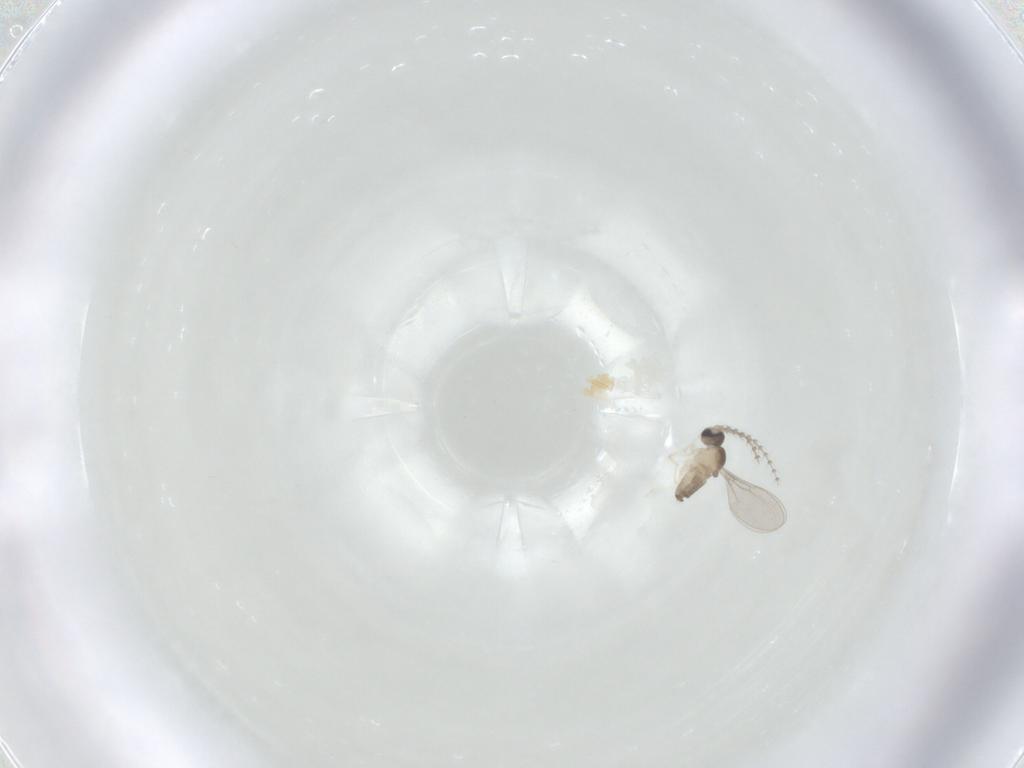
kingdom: Animalia
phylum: Arthropoda
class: Insecta
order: Diptera
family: Cecidomyiidae
